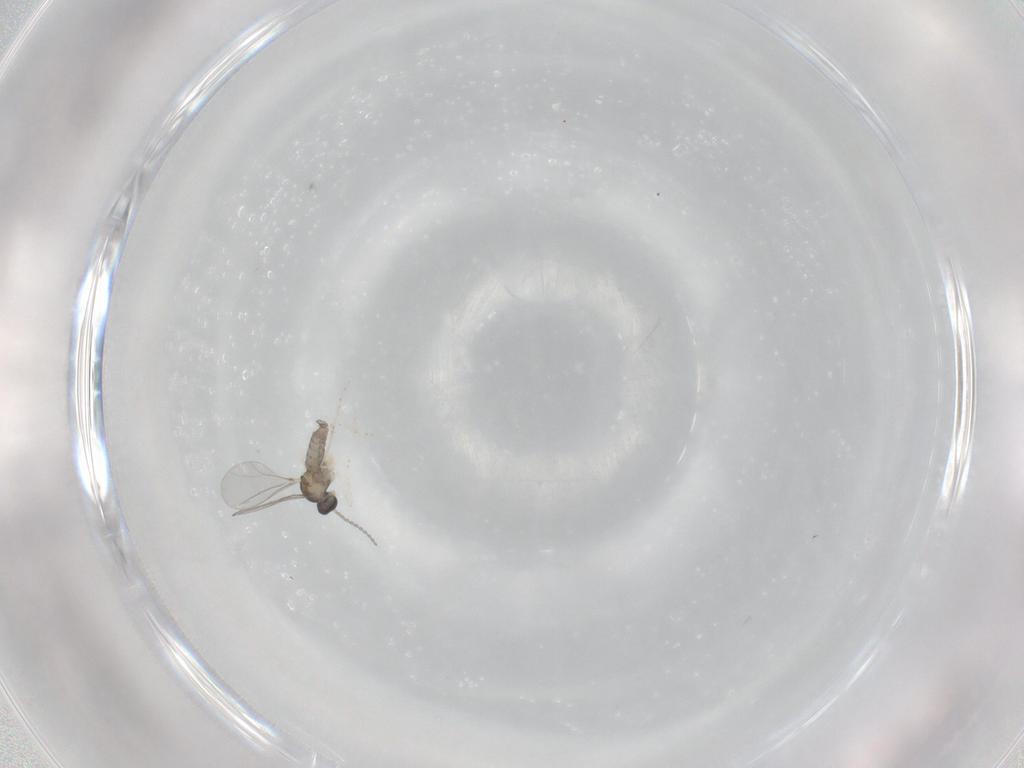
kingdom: Animalia
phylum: Arthropoda
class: Insecta
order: Diptera
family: Cecidomyiidae
